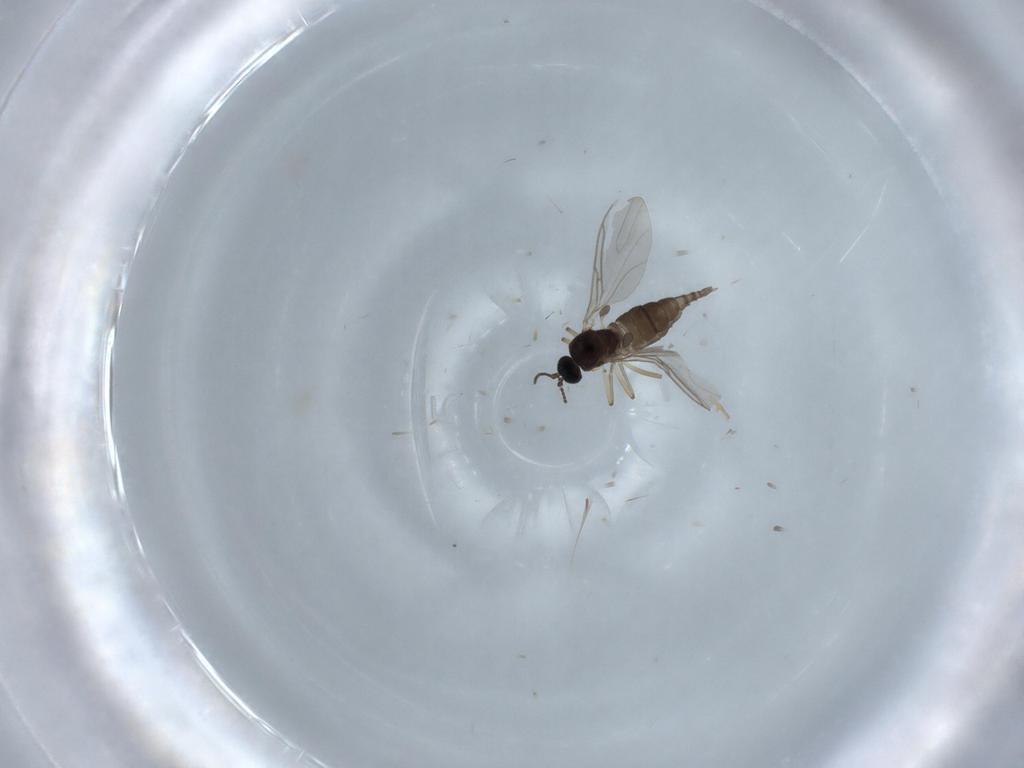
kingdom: Animalia
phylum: Arthropoda
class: Insecta
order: Diptera
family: Sciaridae
